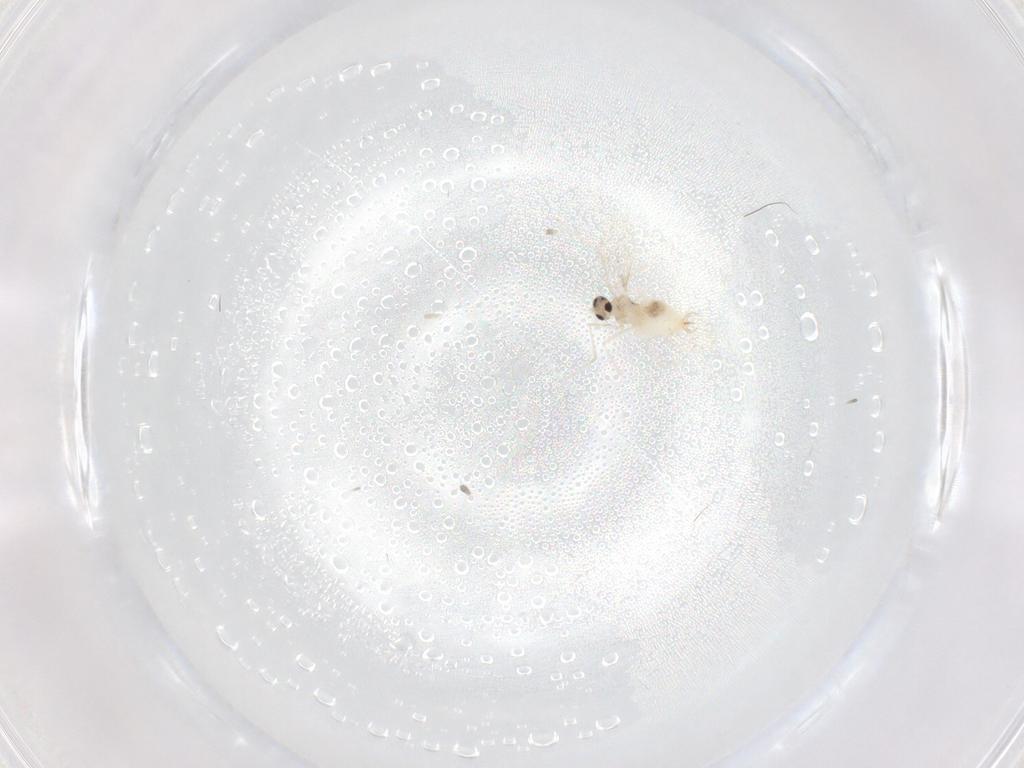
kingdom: Animalia
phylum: Arthropoda
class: Insecta
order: Diptera
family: Cecidomyiidae
